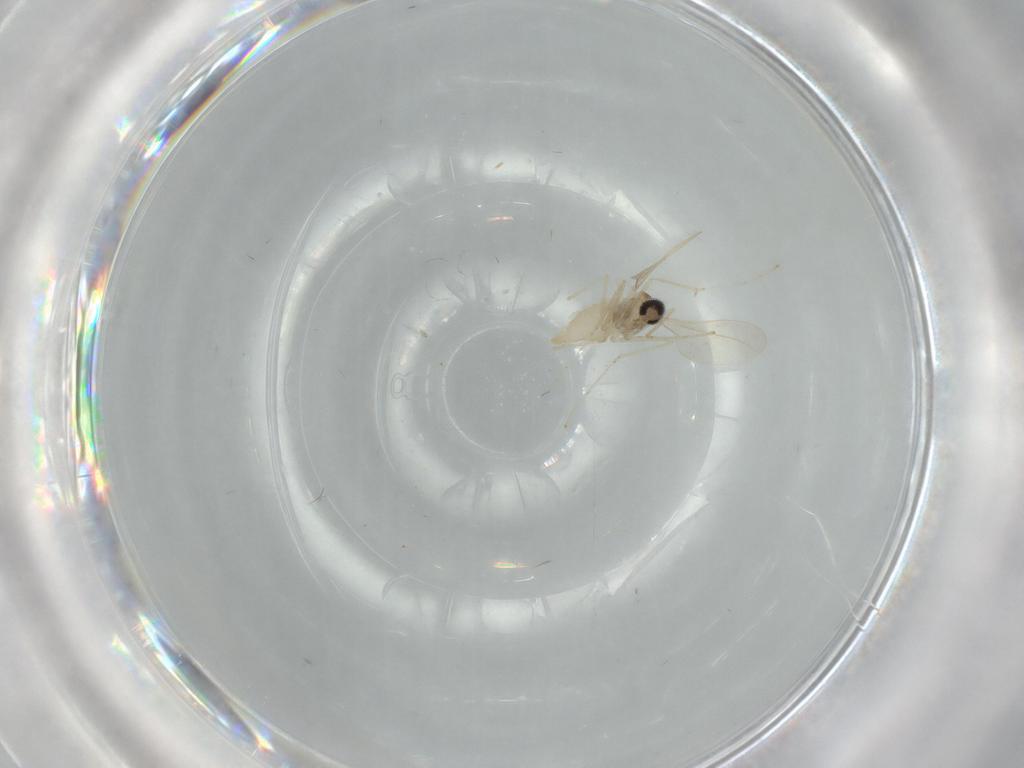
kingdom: Animalia
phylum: Arthropoda
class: Insecta
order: Diptera
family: Cecidomyiidae
